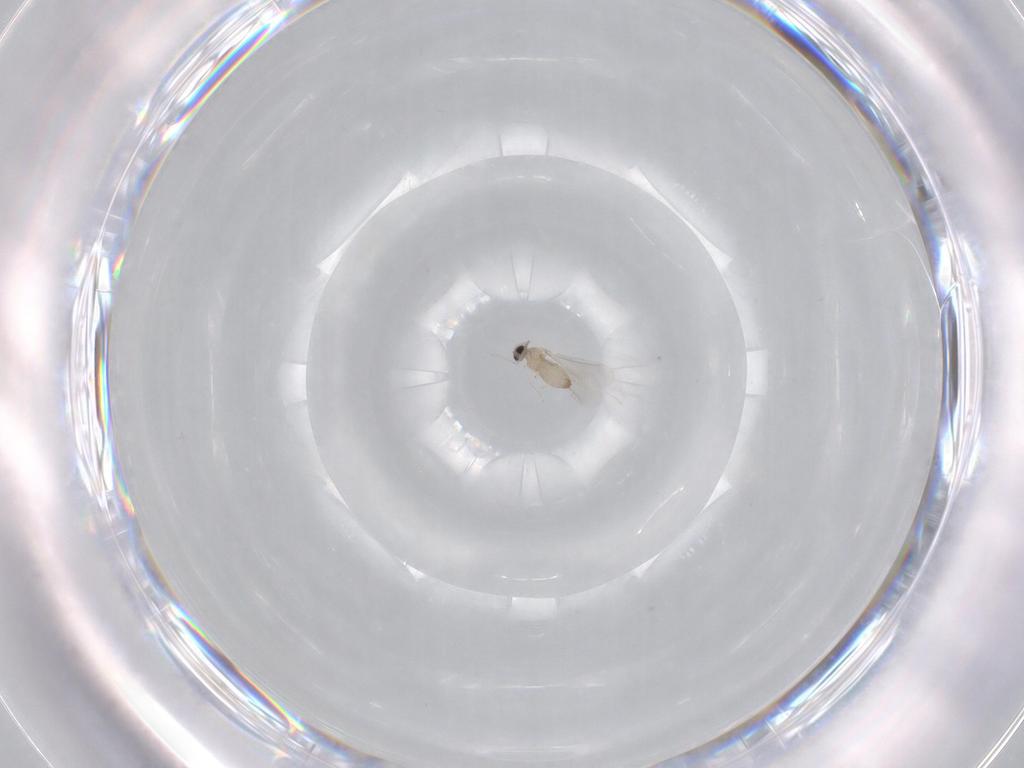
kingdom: Animalia
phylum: Arthropoda
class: Insecta
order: Diptera
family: Cecidomyiidae
